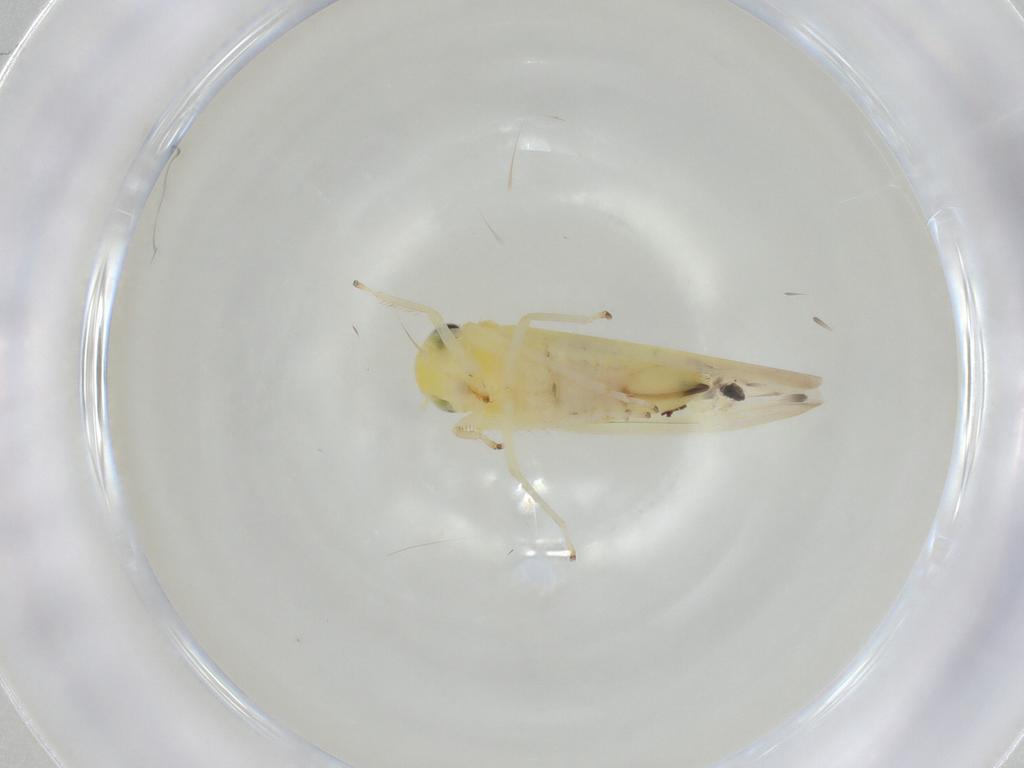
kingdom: Animalia
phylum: Arthropoda
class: Insecta
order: Hemiptera
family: Cicadellidae
